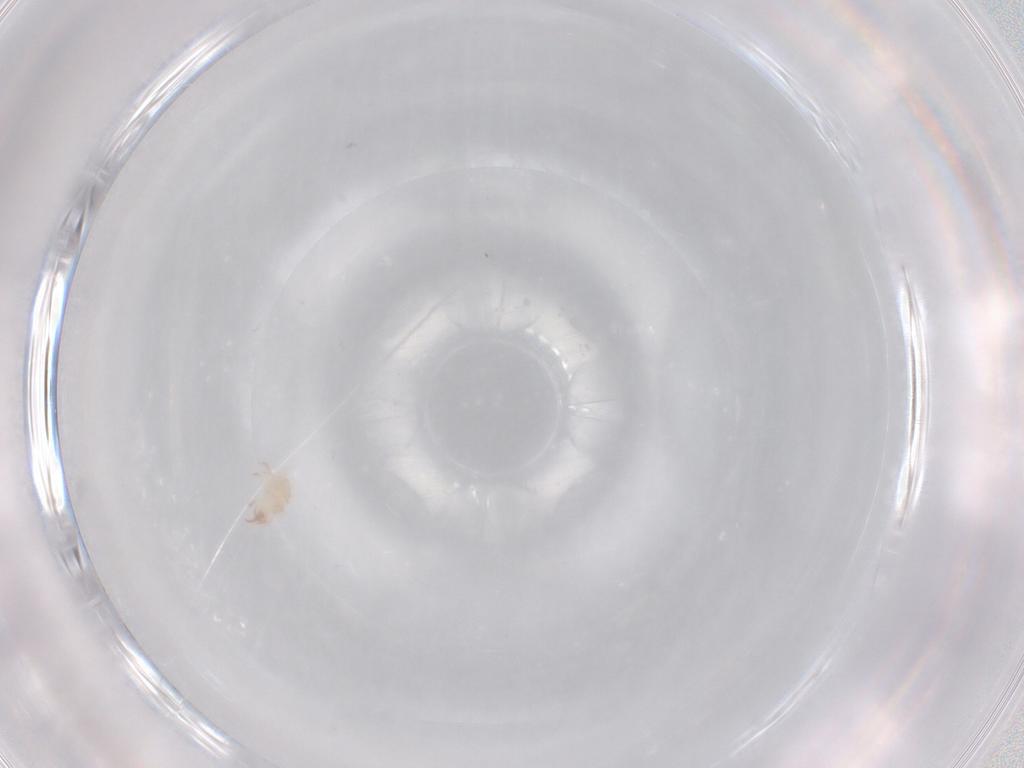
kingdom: Animalia
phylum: Arthropoda
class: Arachnida
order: Trombidiformes
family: Stigmaeidae
